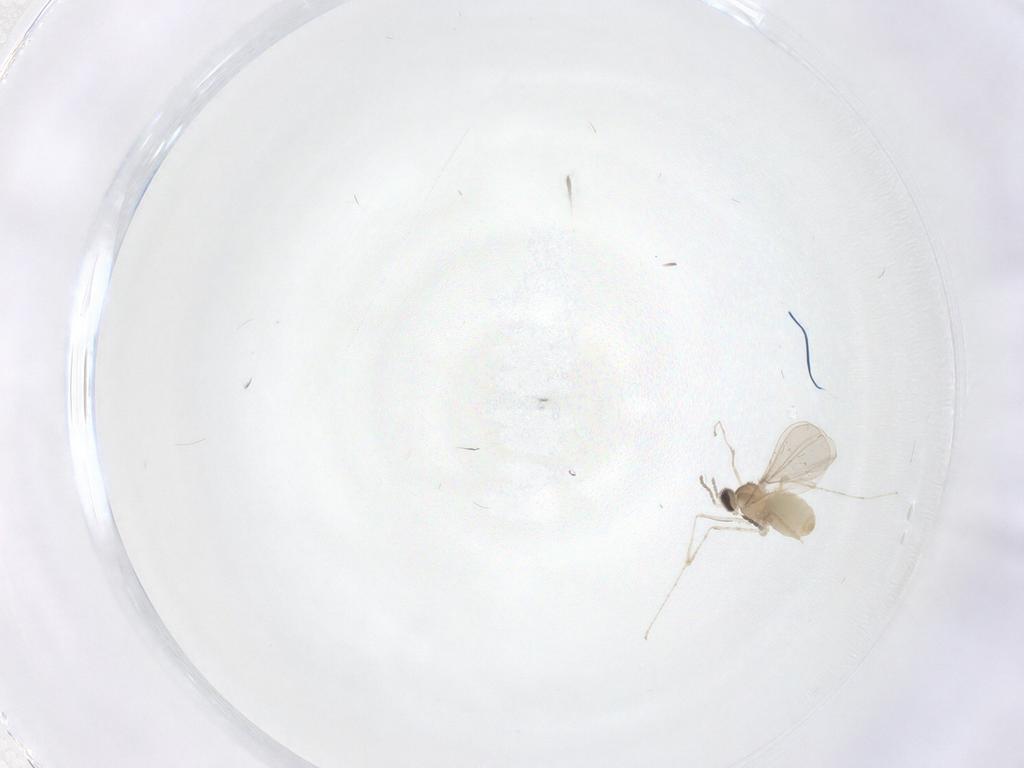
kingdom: Animalia
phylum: Arthropoda
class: Insecta
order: Diptera
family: Cecidomyiidae
